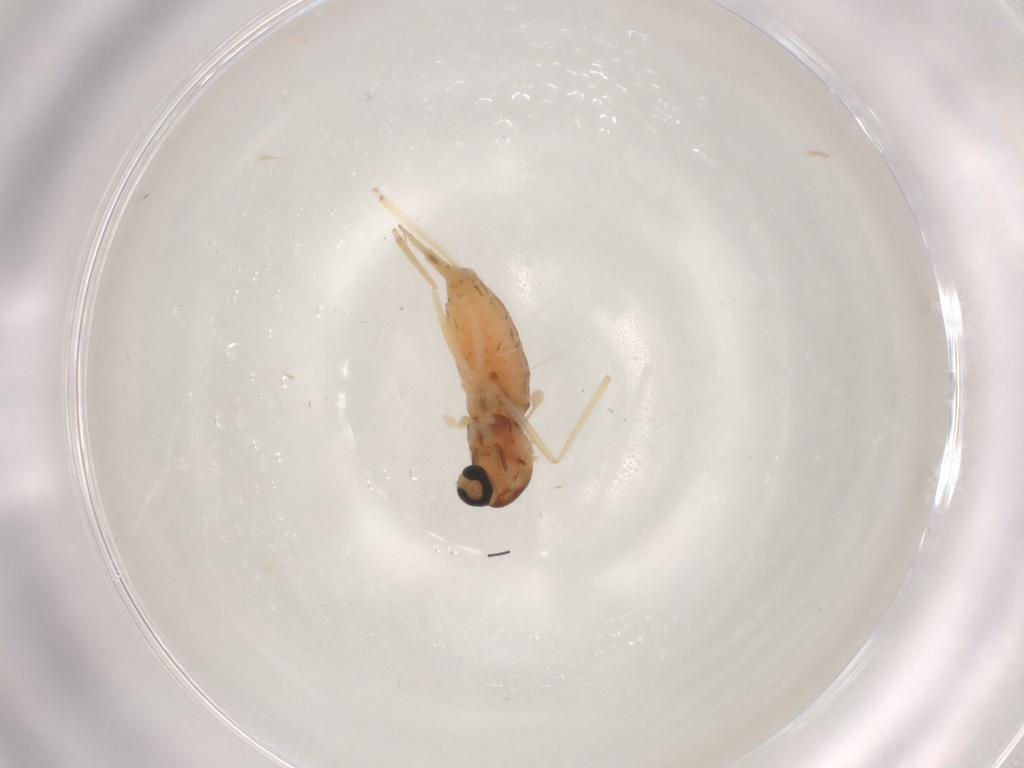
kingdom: Animalia
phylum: Arthropoda
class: Insecta
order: Diptera
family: Cecidomyiidae
